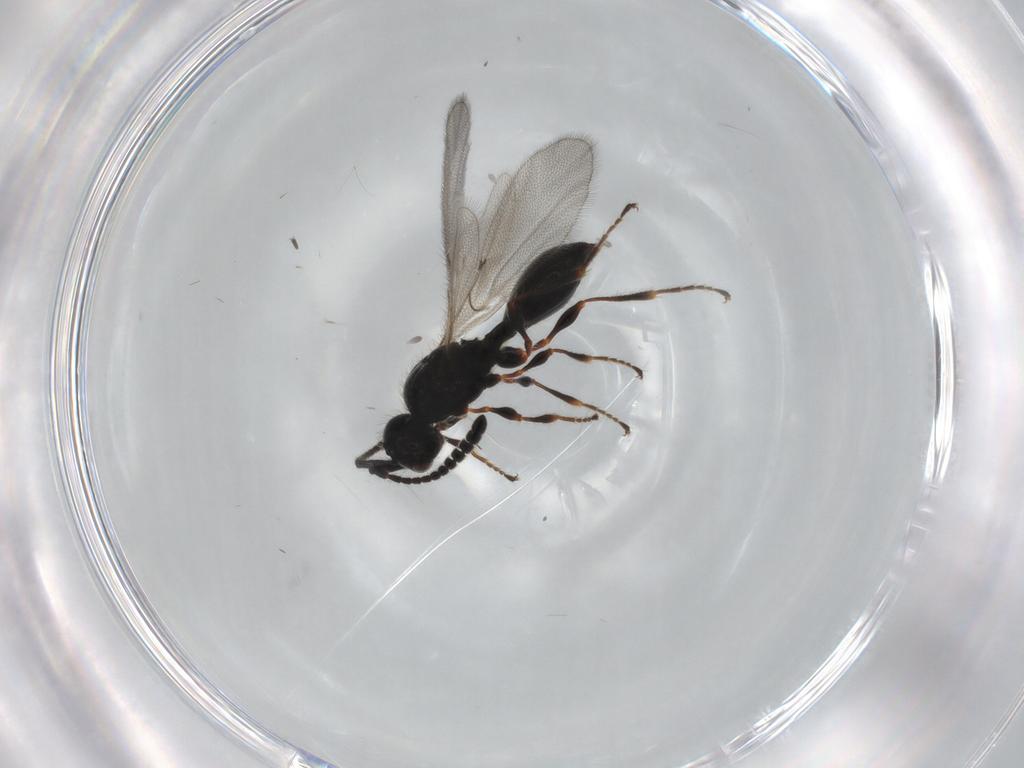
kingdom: Animalia
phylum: Arthropoda
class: Insecta
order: Hymenoptera
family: Diapriidae
